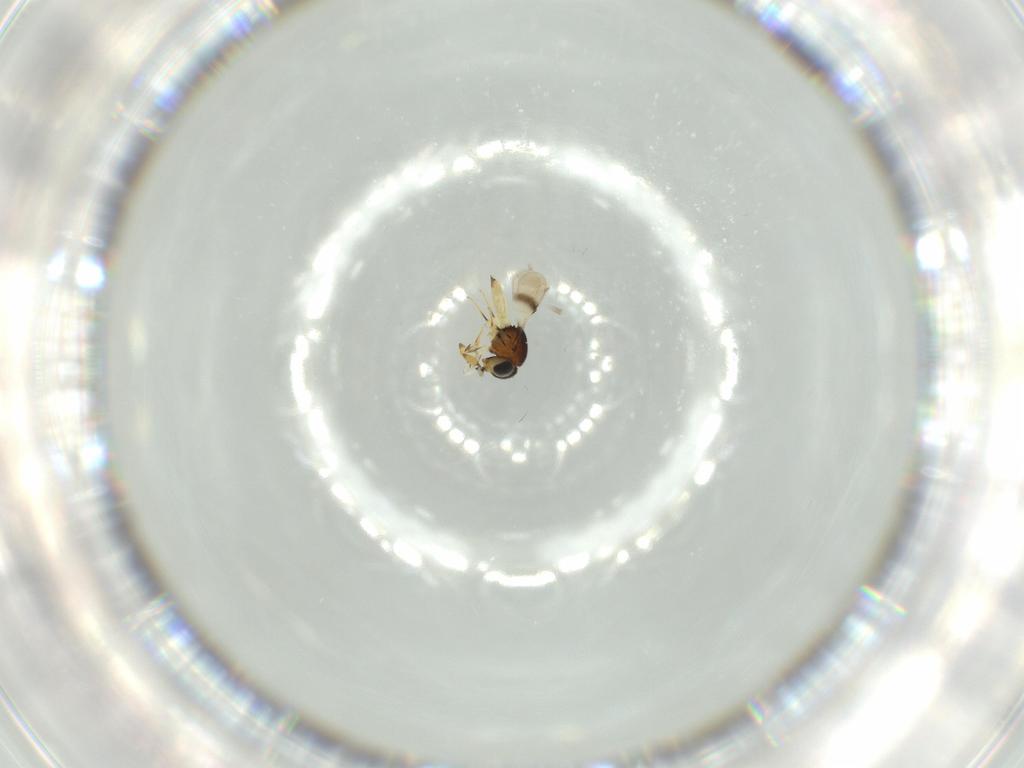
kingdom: Animalia
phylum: Arthropoda
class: Insecta
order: Hymenoptera
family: Scelionidae
